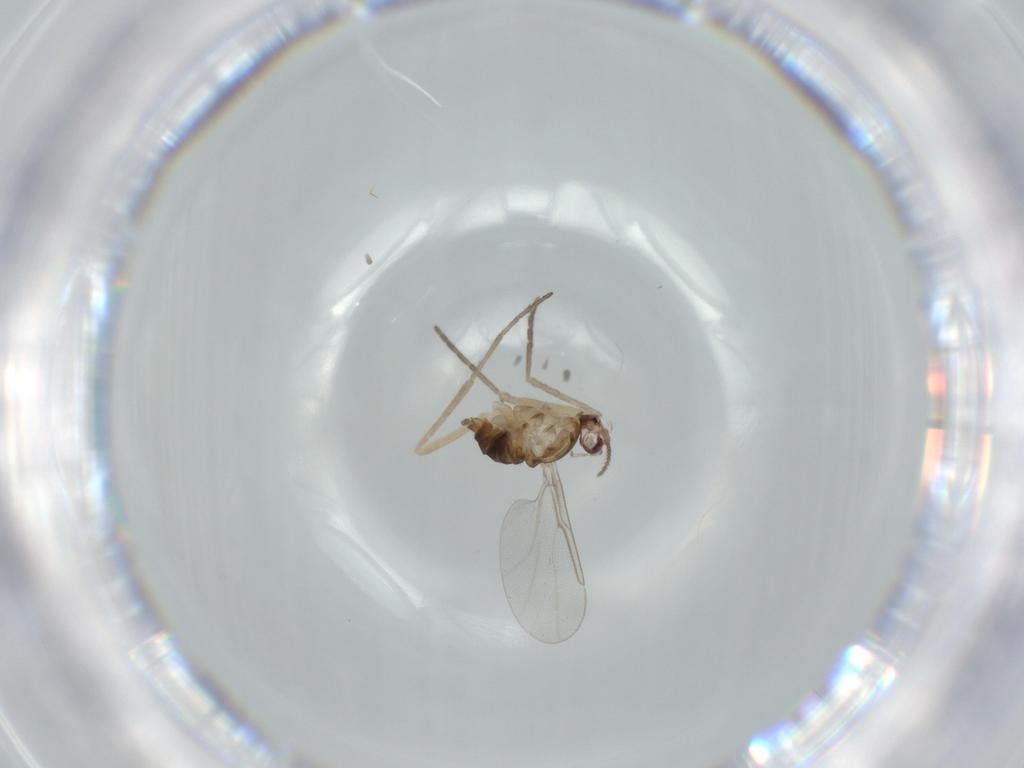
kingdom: Animalia
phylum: Arthropoda
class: Insecta
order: Diptera
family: Cecidomyiidae
